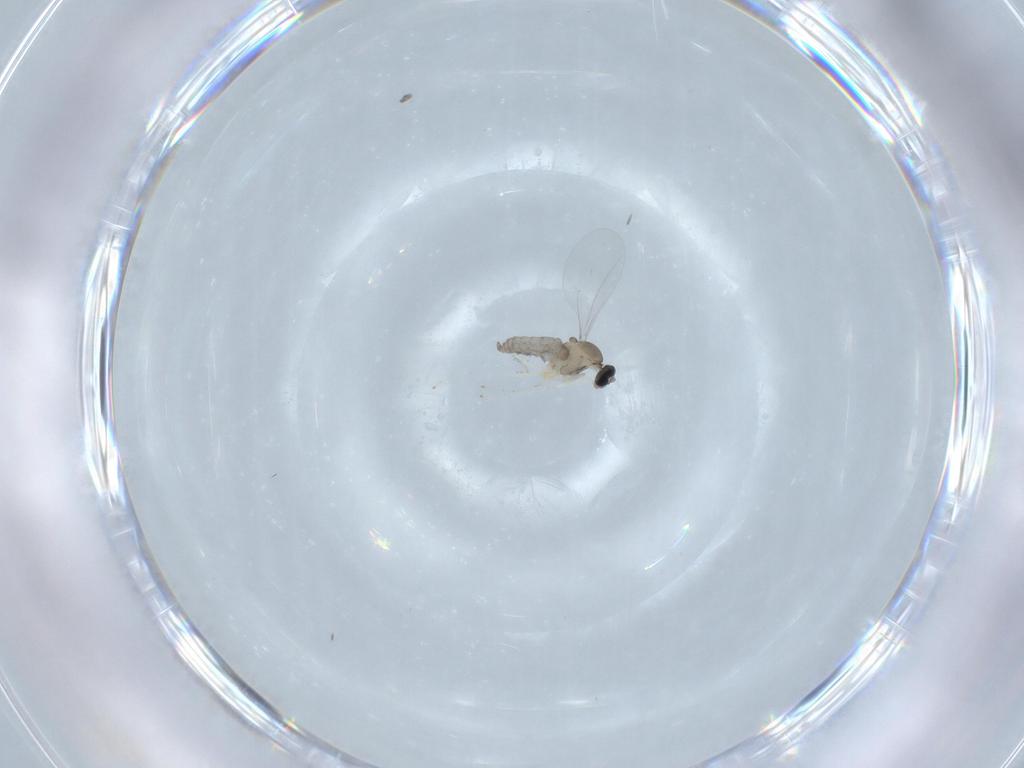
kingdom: Animalia
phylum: Arthropoda
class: Insecta
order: Diptera
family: Cecidomyiidae
